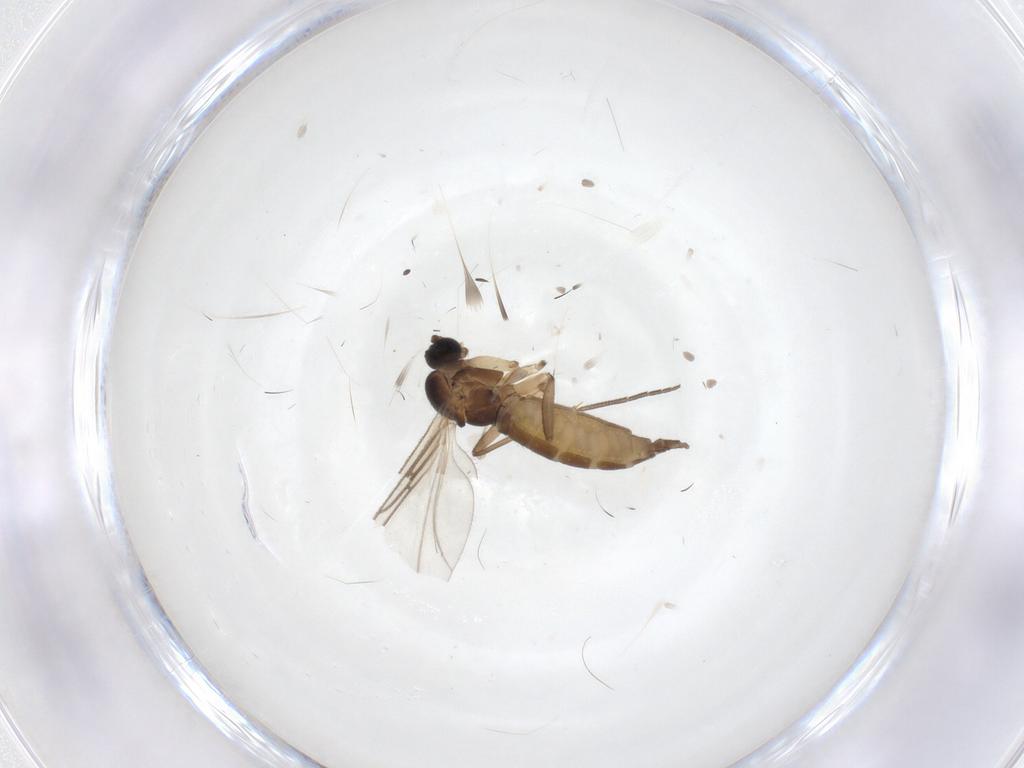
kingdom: Animalia
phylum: Arthropoda
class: Insecta
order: Diptera
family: Sciaridae
